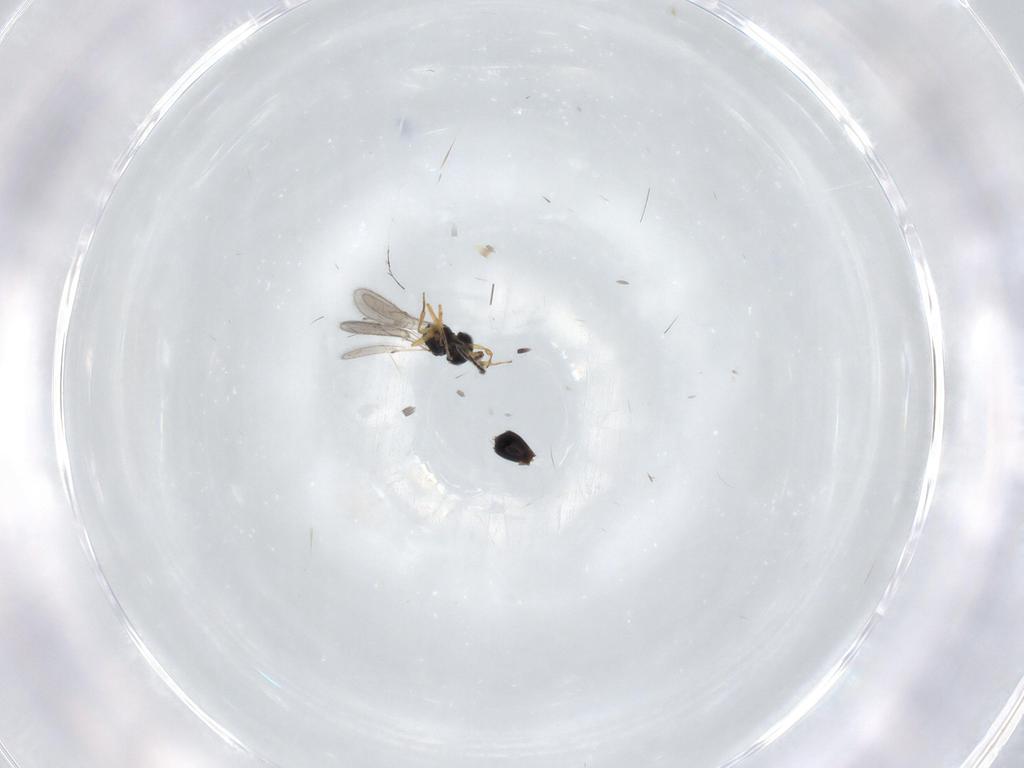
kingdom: Animalia
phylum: Arthropoda
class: Insecta
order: Hymenoptera
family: Scelionidae
